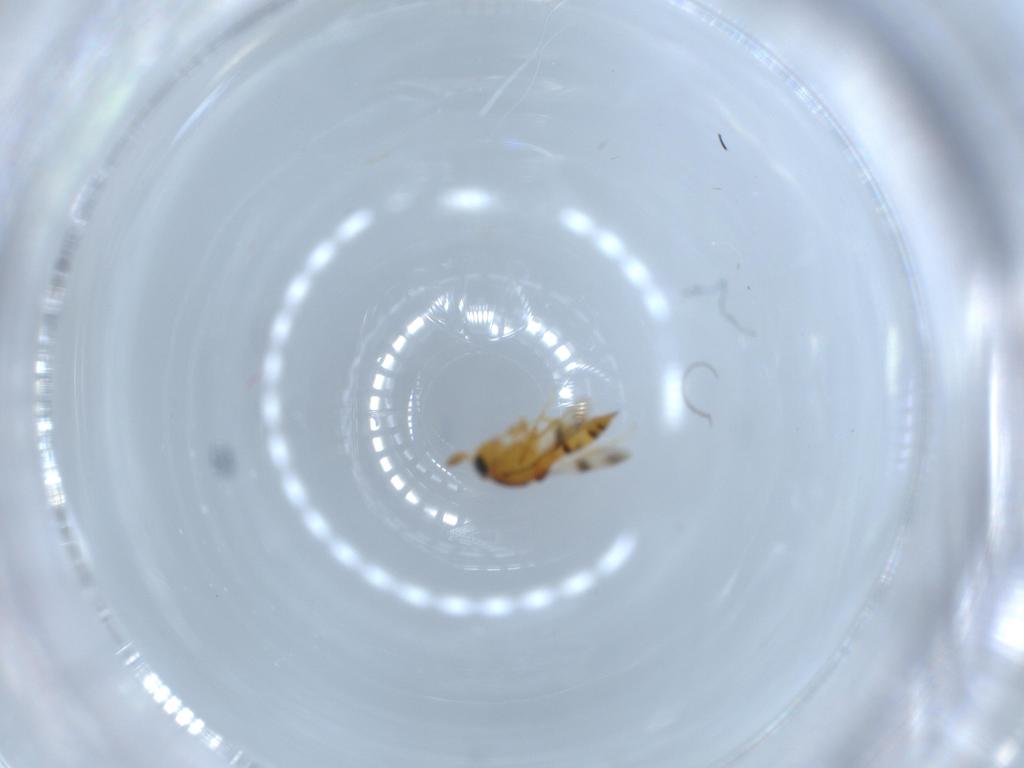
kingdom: Animalia
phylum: Arthropoda
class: Insecta
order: Hymenoptera
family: Scelionidae
